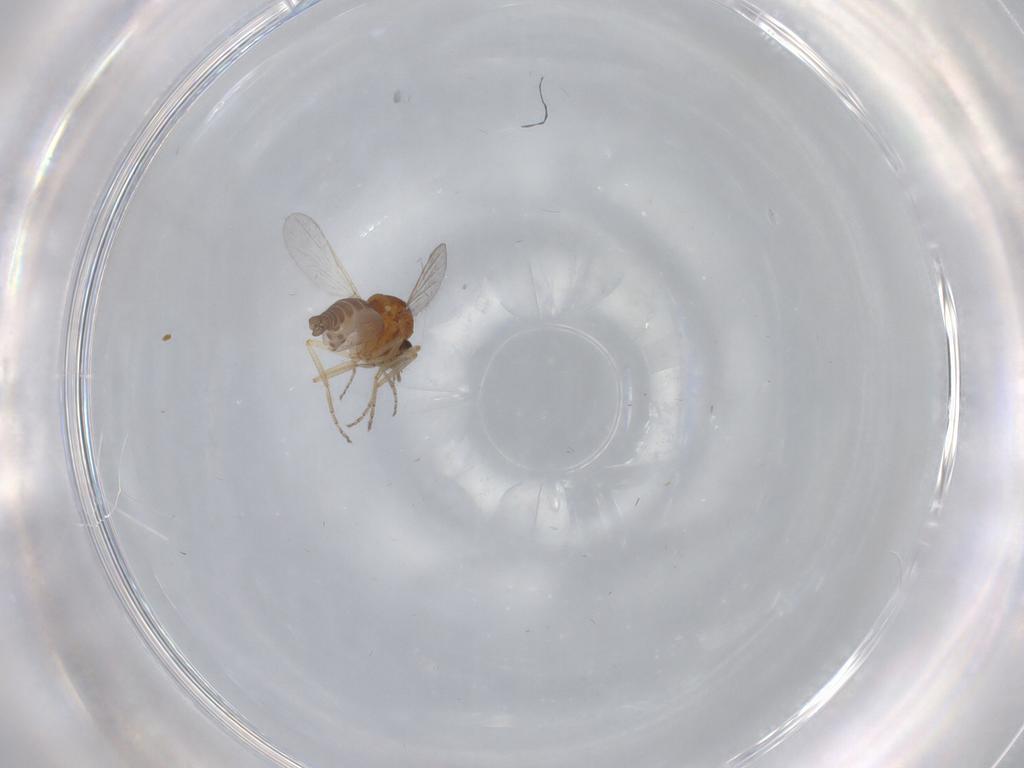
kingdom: Animalia
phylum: Arthropoda
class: Insecta
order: Diptera
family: Ceratopogonidae
